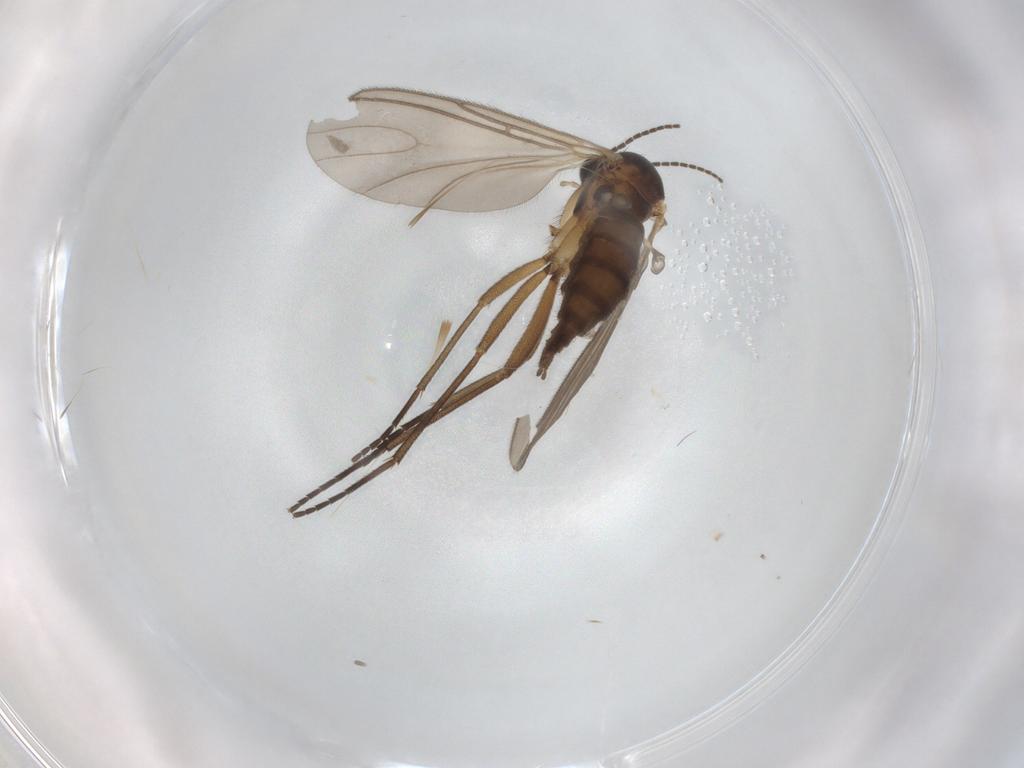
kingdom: Animalia
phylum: Arthropoda
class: Insecta
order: Diptera
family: Sciaridae
